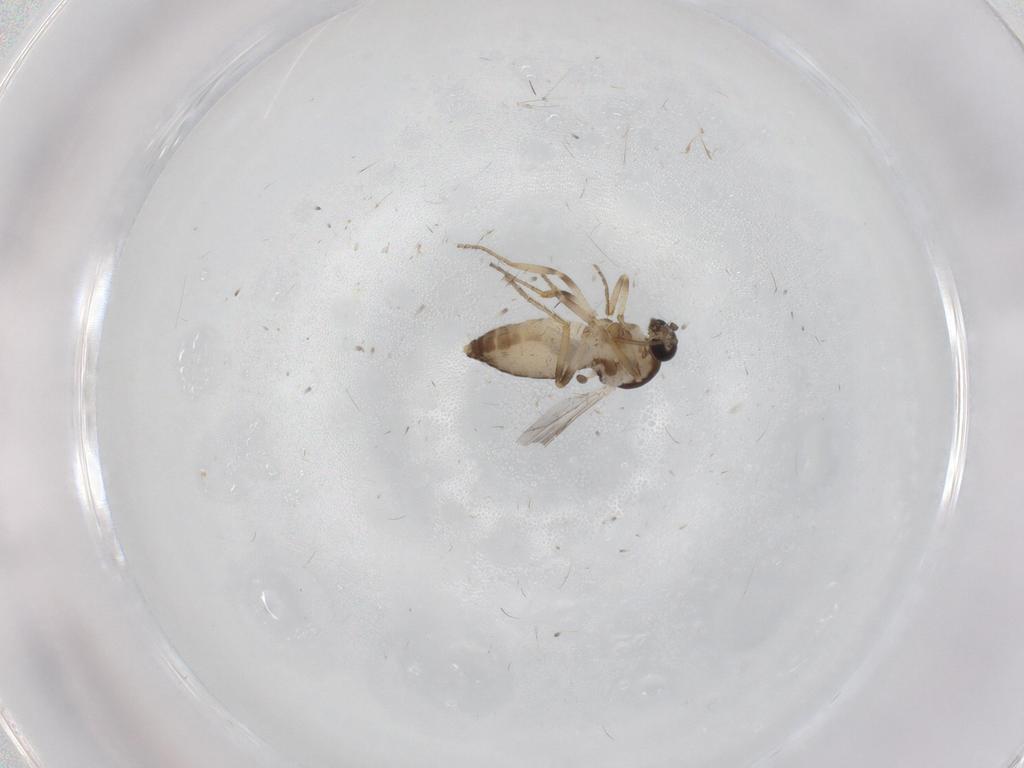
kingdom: Animalia
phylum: Arthropoda
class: Insecta
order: Diptera
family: Ceratopogonidae
